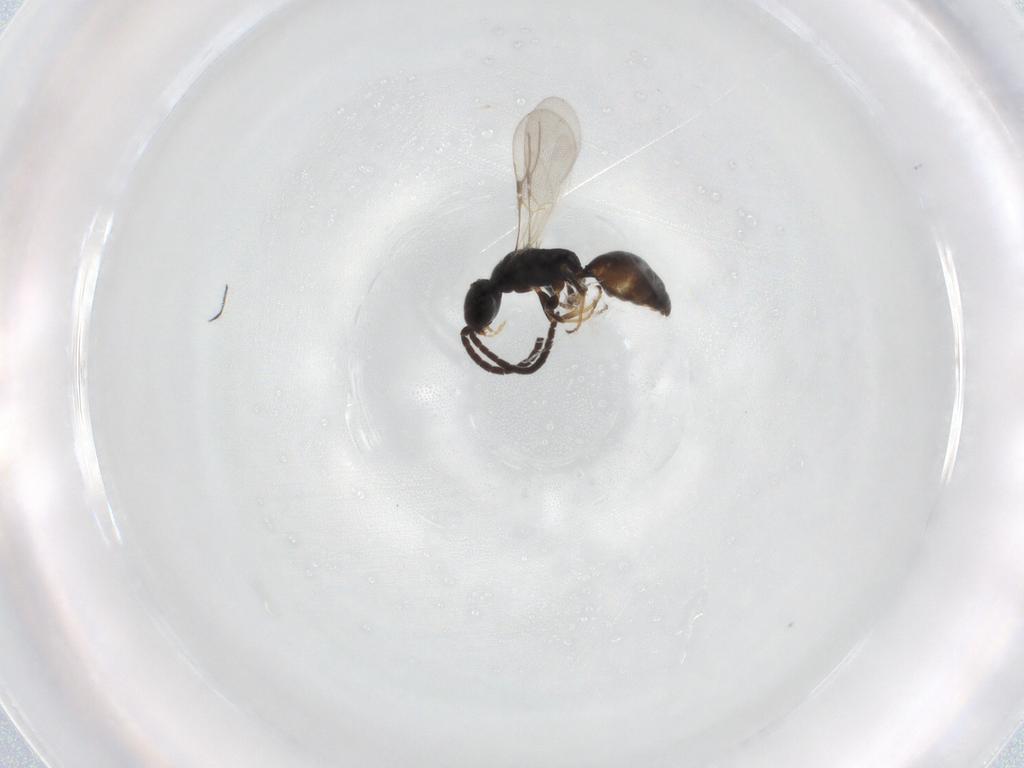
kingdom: Animalia
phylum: Arthropoda
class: Insecta
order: Hymenoptera
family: Bethylidae
